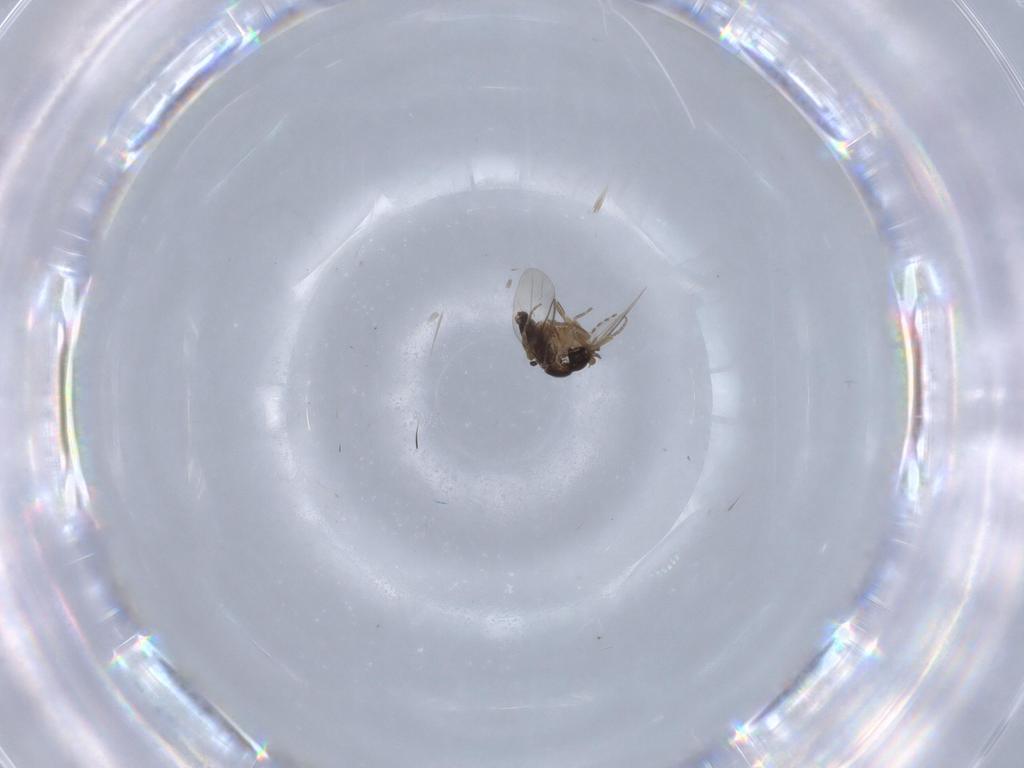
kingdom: Animalia
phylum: Arthropoda
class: Insecta
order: Diptera
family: Phoridae
